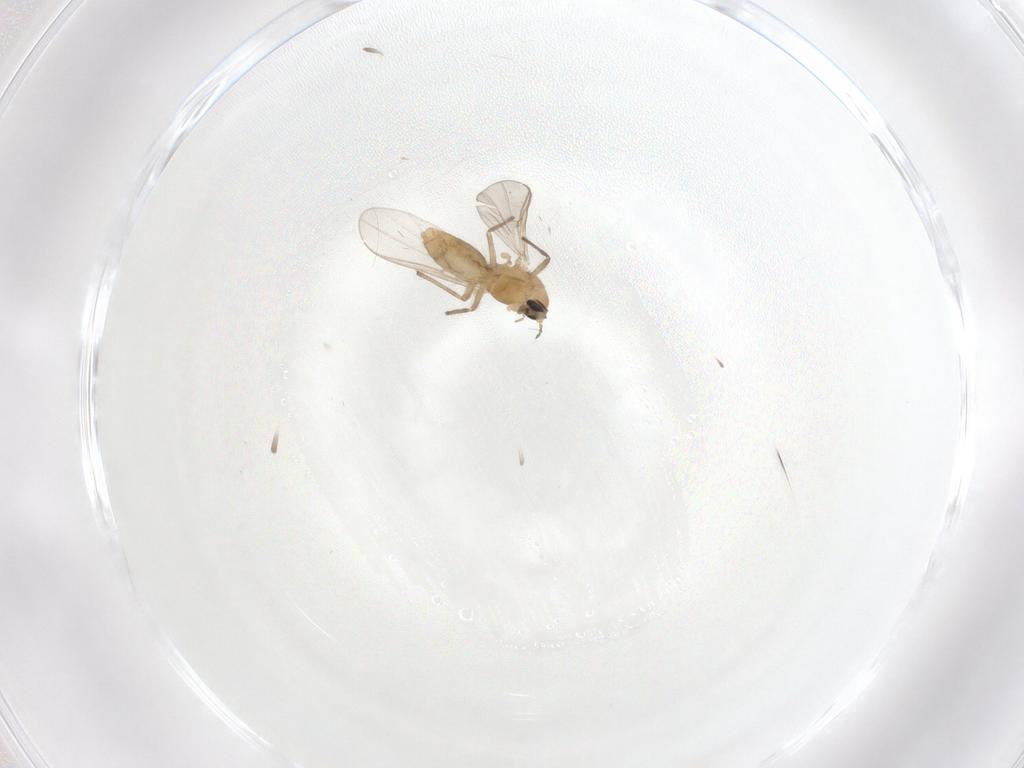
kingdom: Animalia
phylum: Arthropoda
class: Insecta
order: Diptera
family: Chironomidae
